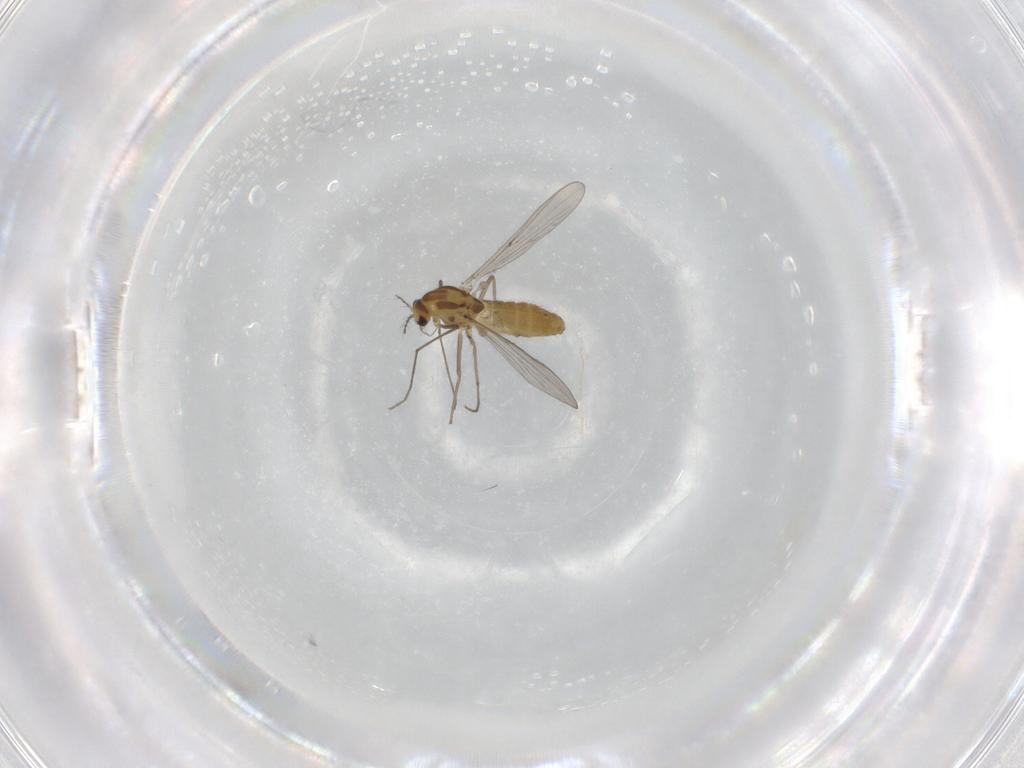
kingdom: Animalia
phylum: Arthropoda
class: Insecta
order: Diptera
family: Chironomidae
